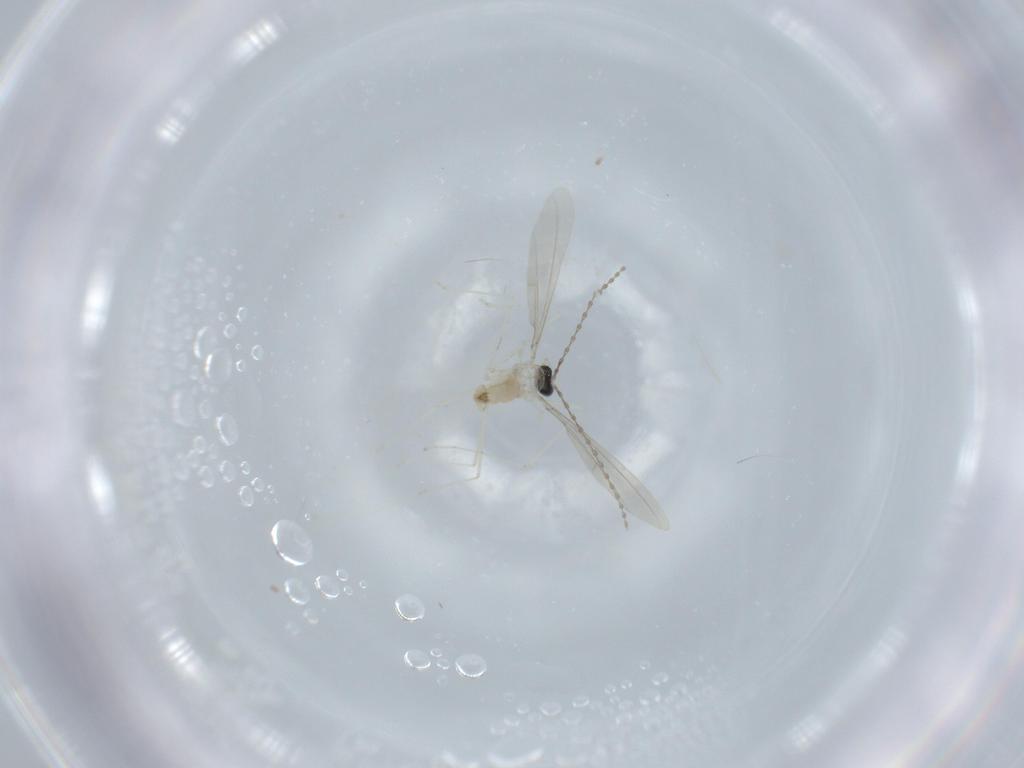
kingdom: Animalia
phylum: Arthropoda
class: Insecta
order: Diptera
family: Cecidomyiidae
